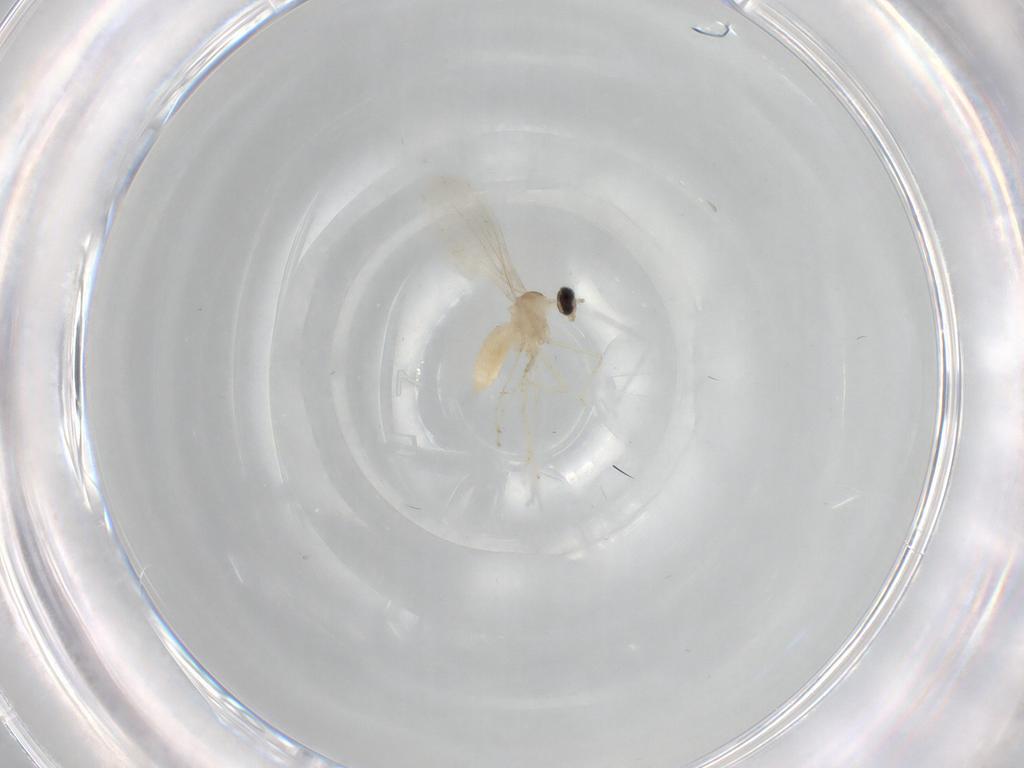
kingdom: Animalia
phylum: Arthropoda
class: Insecta
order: Diptera
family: Cecidomyiidae
